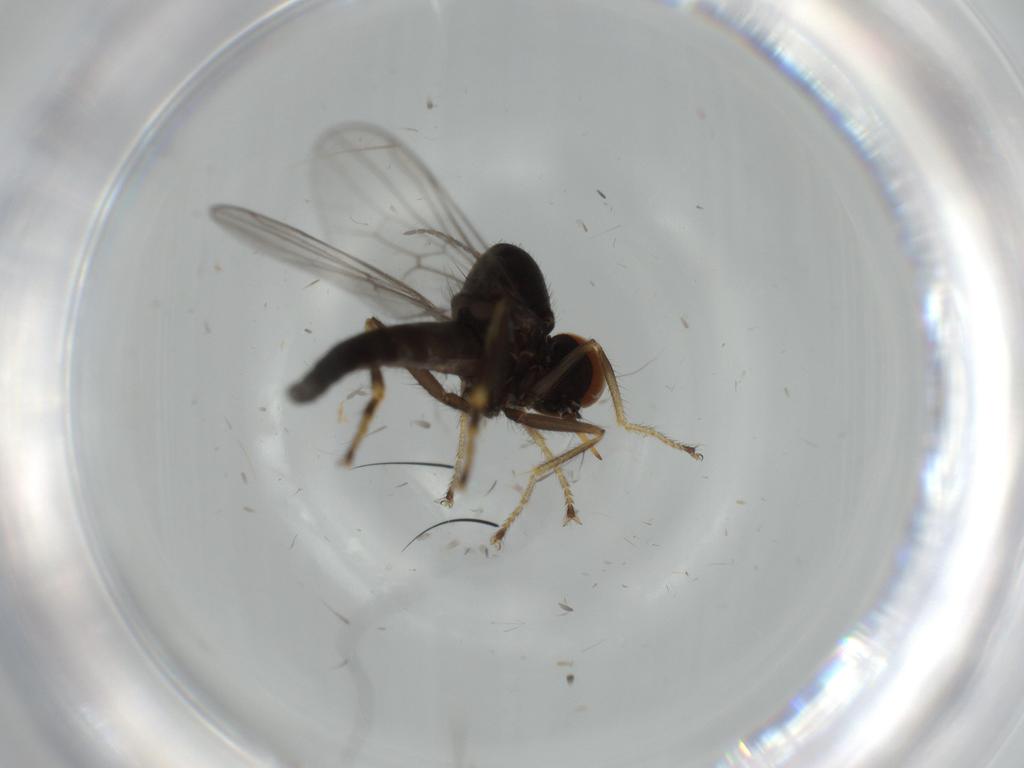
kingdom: Animalia
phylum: Arthropoda
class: Insecta
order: Diptera
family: Hybotidae
